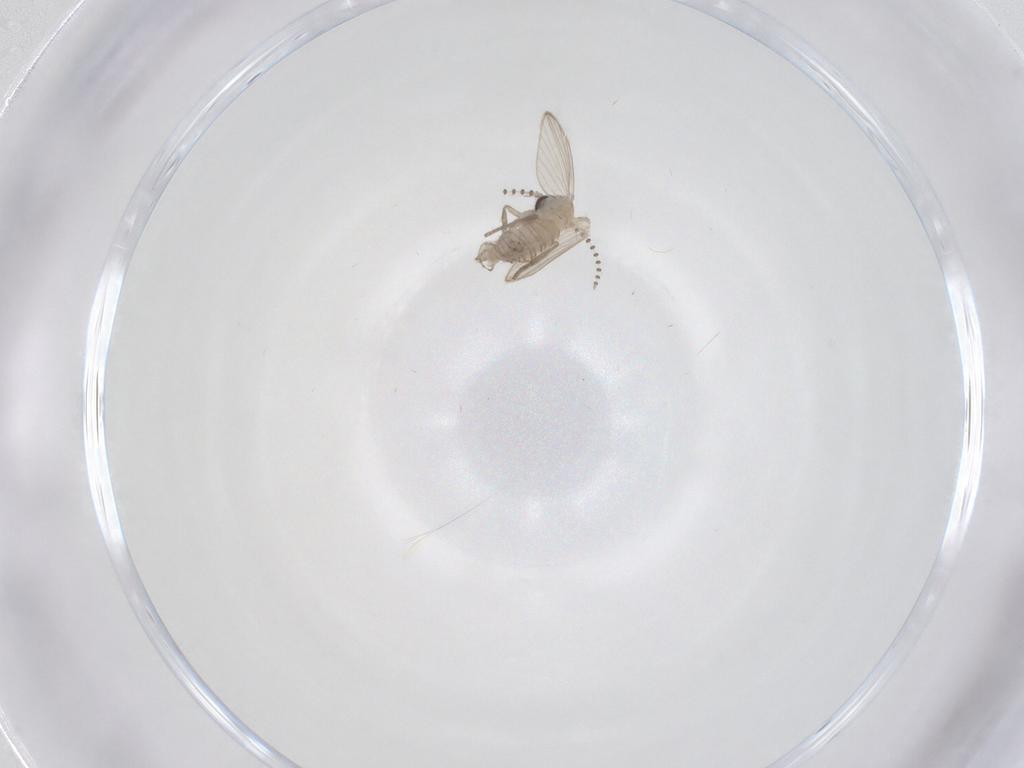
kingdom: Animalia
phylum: Arthropoda
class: Insecta
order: Diptera
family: Psychodidae
